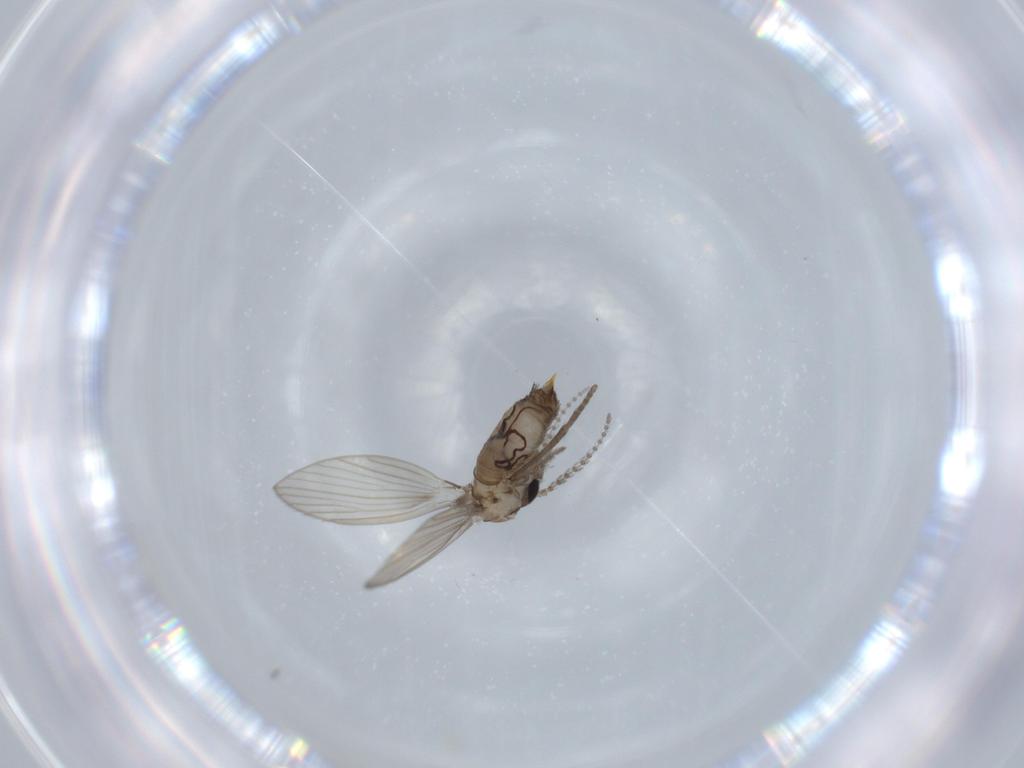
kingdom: Animalia
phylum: Arthropoda
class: Insecta
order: Diptera
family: Psychodidae
